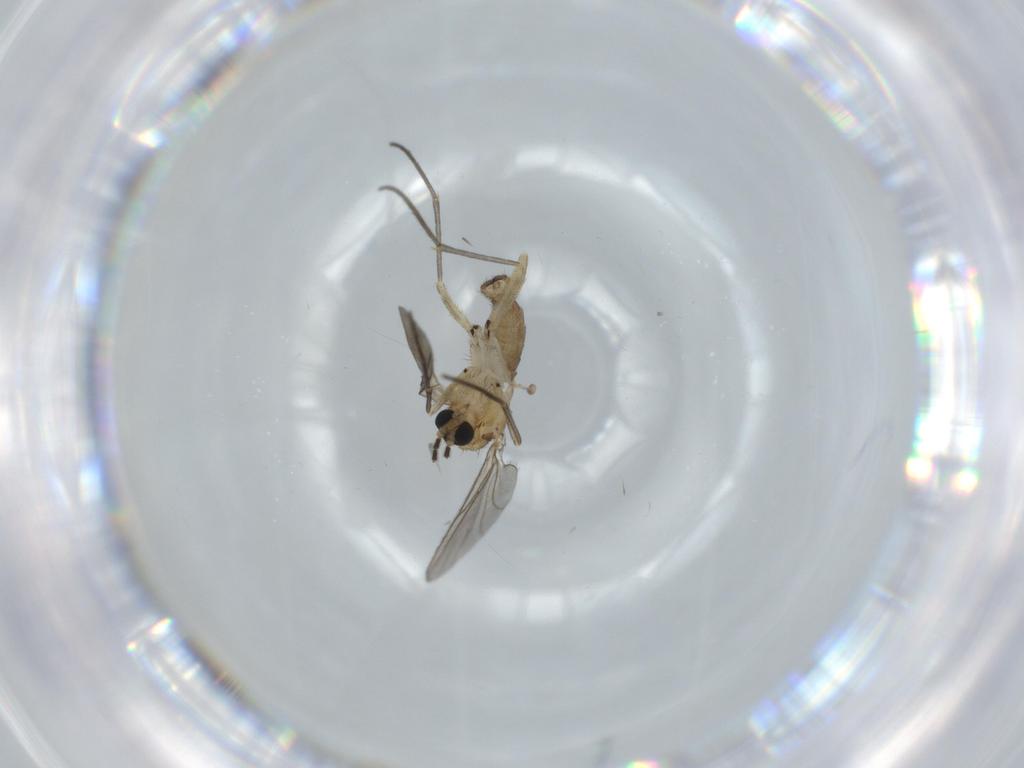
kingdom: Animalia
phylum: Arthropoda
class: Insecta
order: Diptera
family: Sciaridae
